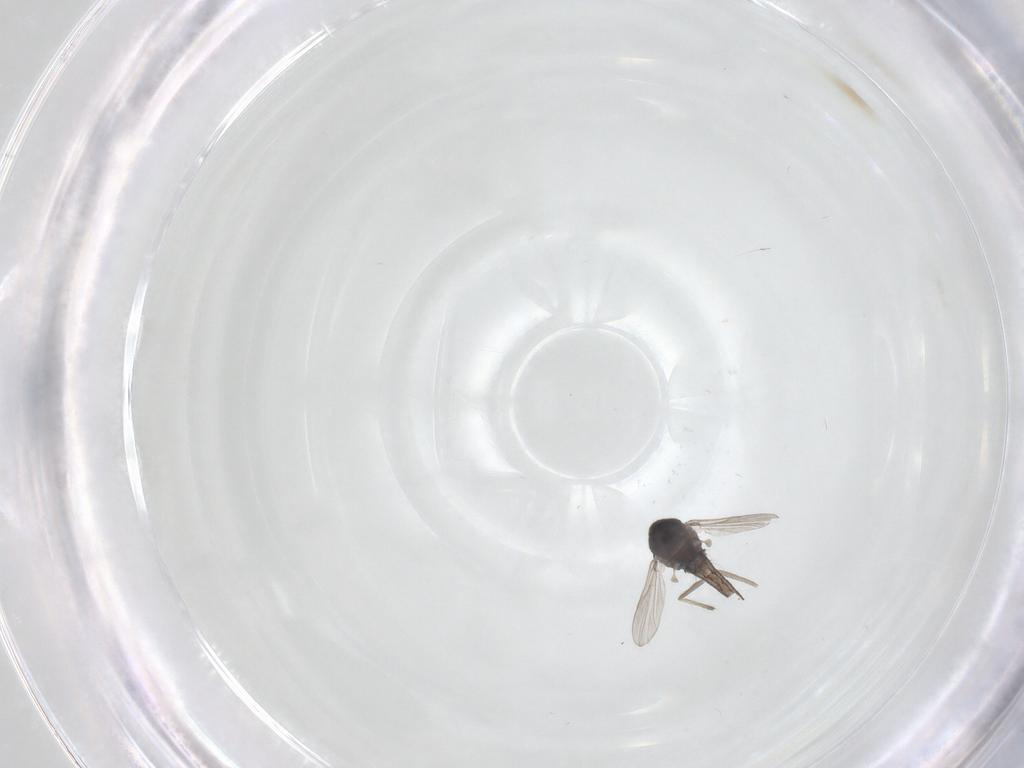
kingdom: Animalia
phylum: Arthropoda
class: Insecta
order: Diptera
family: Chironomidae
